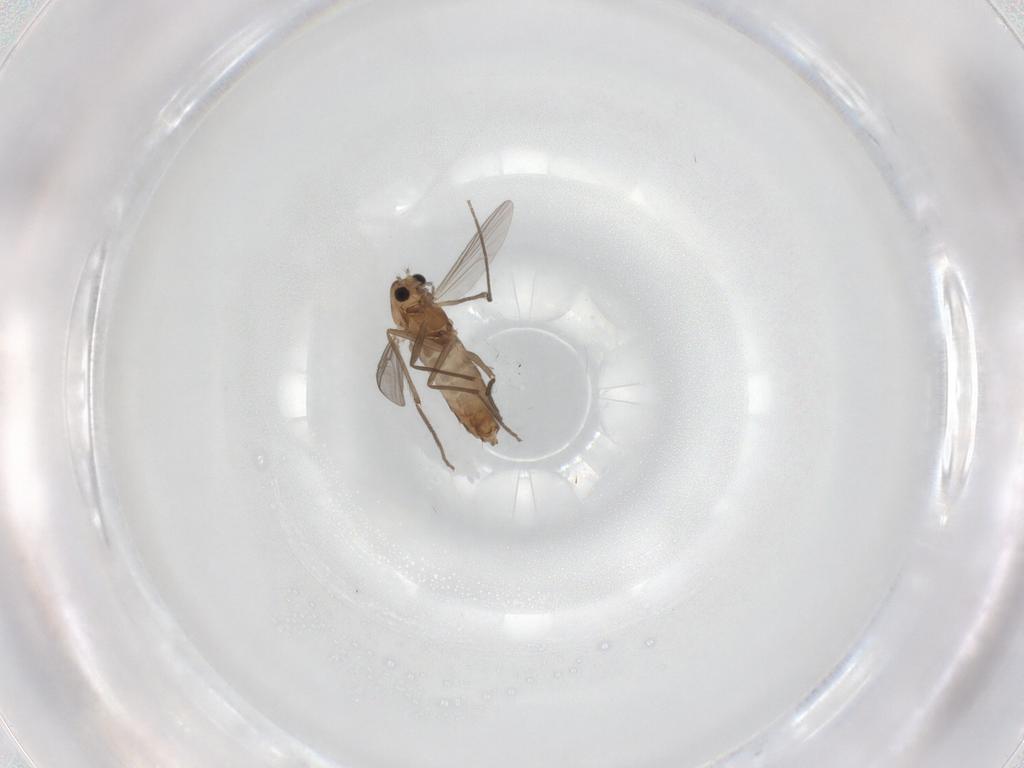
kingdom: Animalia
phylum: Arthropoda
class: Insecta
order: Diptera
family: Chironomidae
